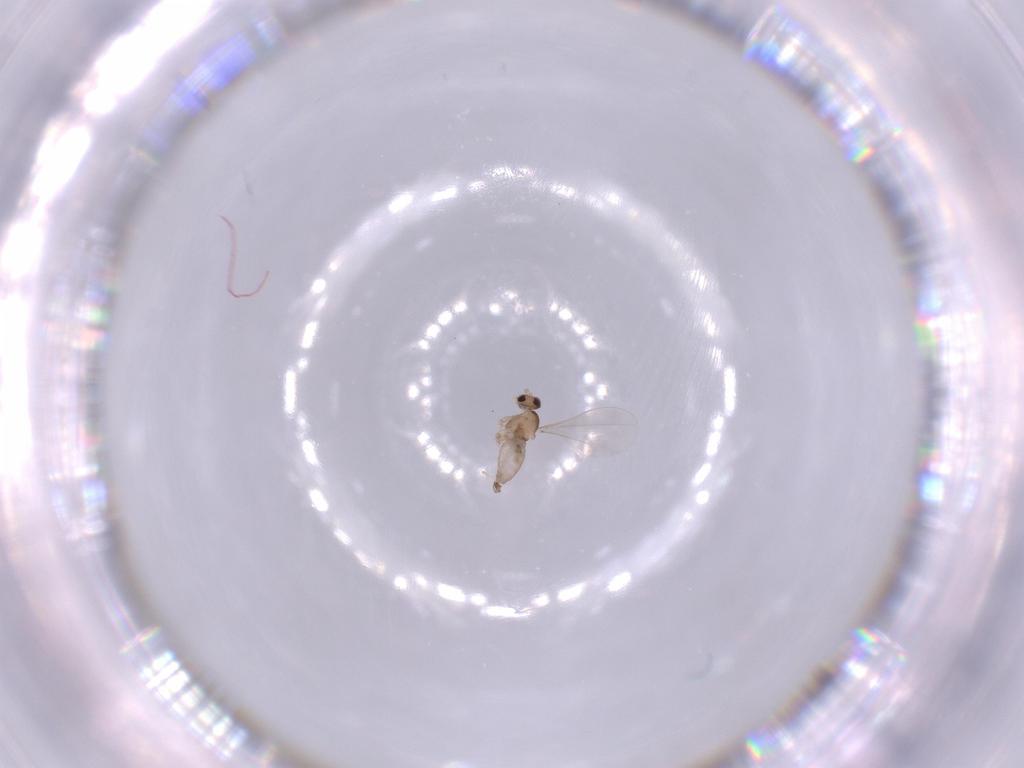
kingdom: Animalia
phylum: Arthropoda
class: Insecta
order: Diptera
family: Cecidomyiidae
